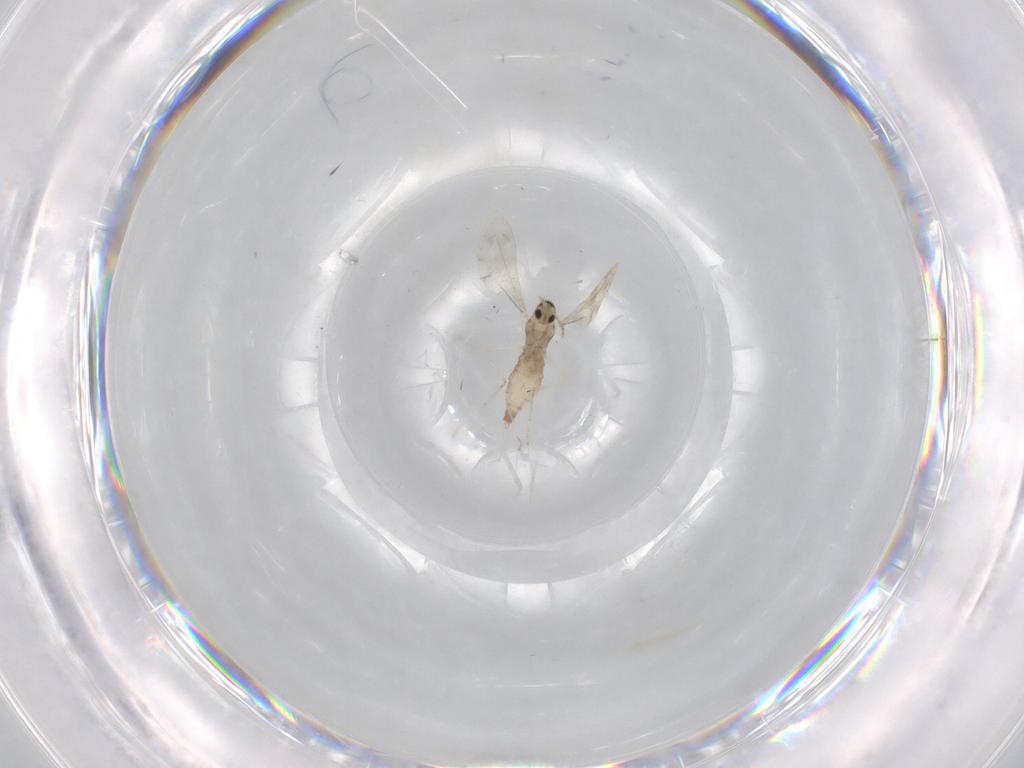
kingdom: Animalia
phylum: Arthropoda
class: Insecta
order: Diptera
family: Cecidomyiidae
